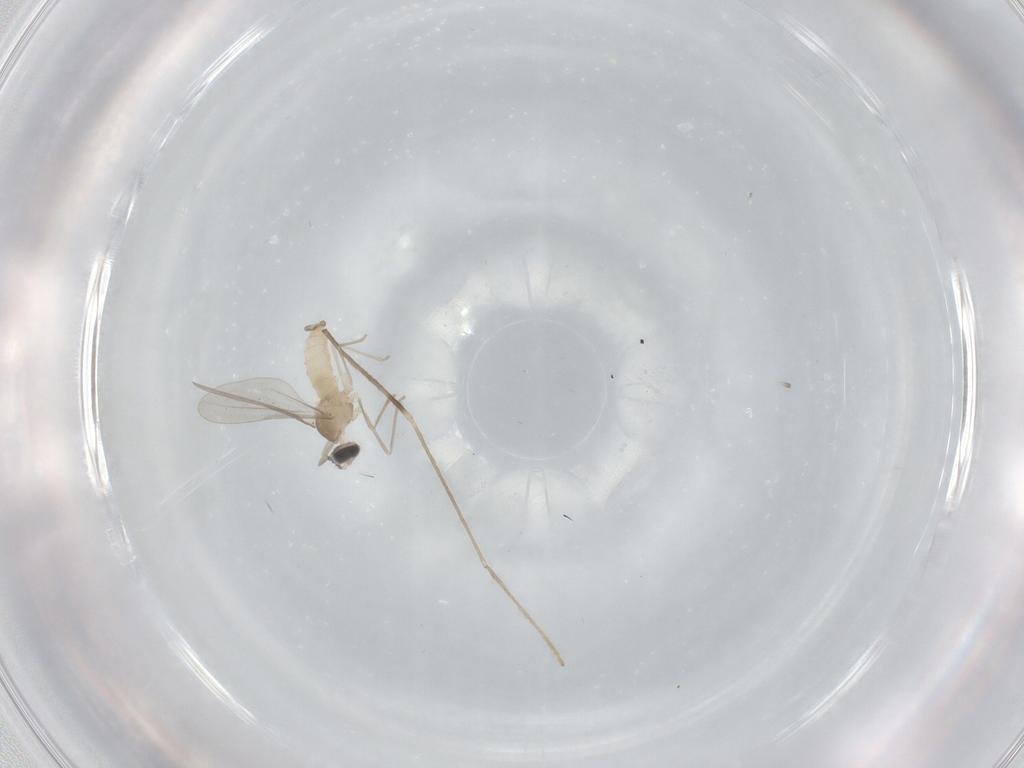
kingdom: Animalia
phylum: Arthropoda
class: Insecta
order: Diptera
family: Cecidomyiidae
